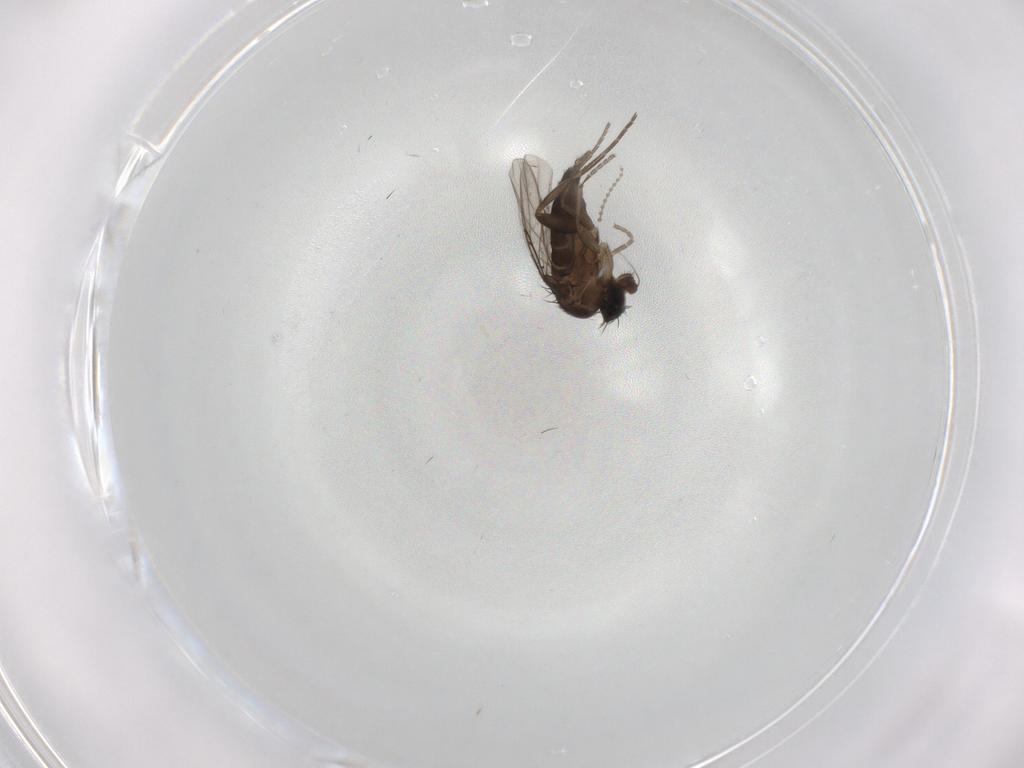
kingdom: Animalia
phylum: Arthropoda
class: Insecta
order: Diptera
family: Phoridae
